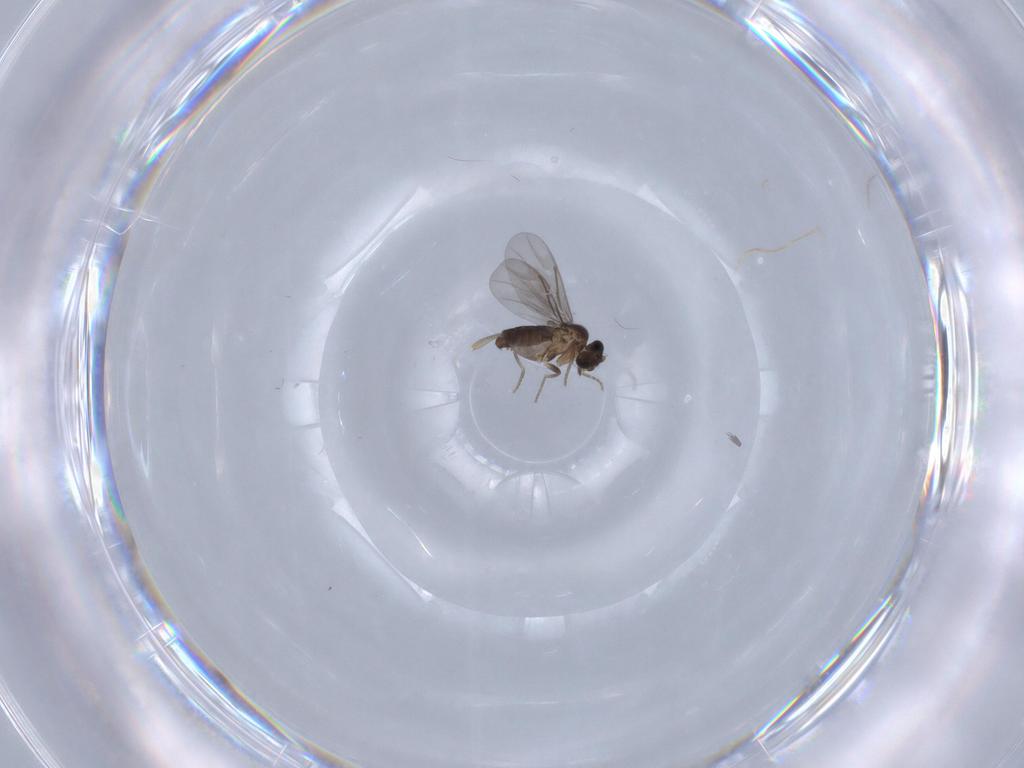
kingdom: Animalia
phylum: Arthropoda
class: Insecta
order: Diptera
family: Phoridae
